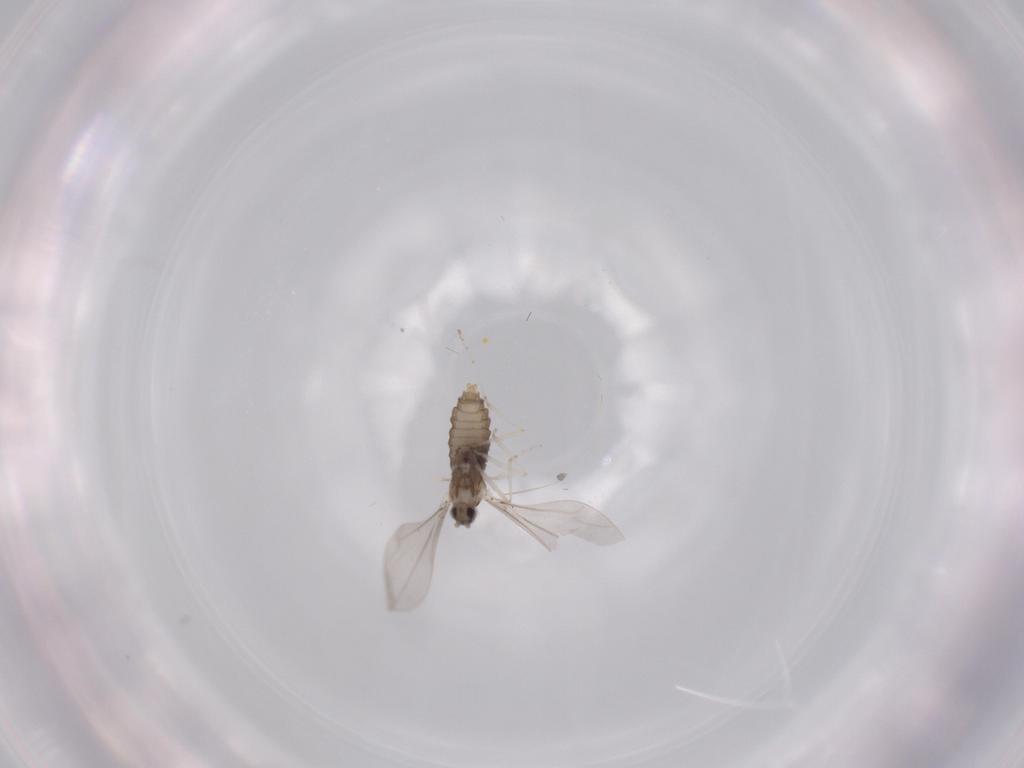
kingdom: Animalia
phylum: Arthropoda
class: Insecta
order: Diptera
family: Cecidomyiidae
